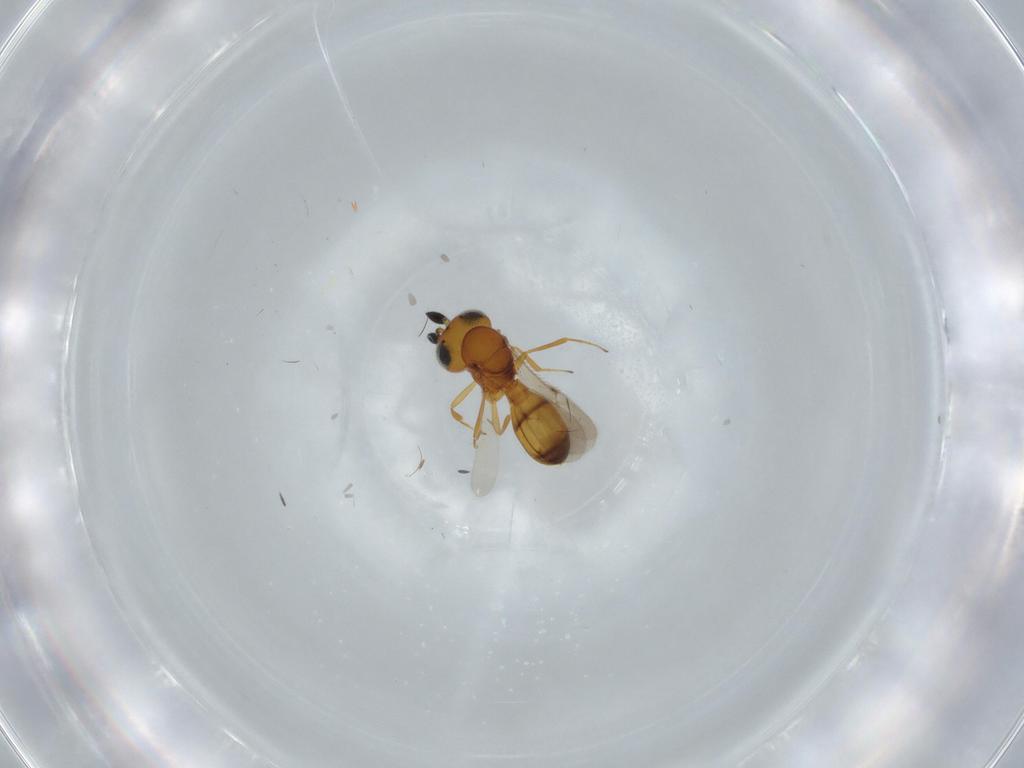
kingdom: Animalia
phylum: Arthropoda
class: Insecta
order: Hymenoptera
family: Scelionidae
